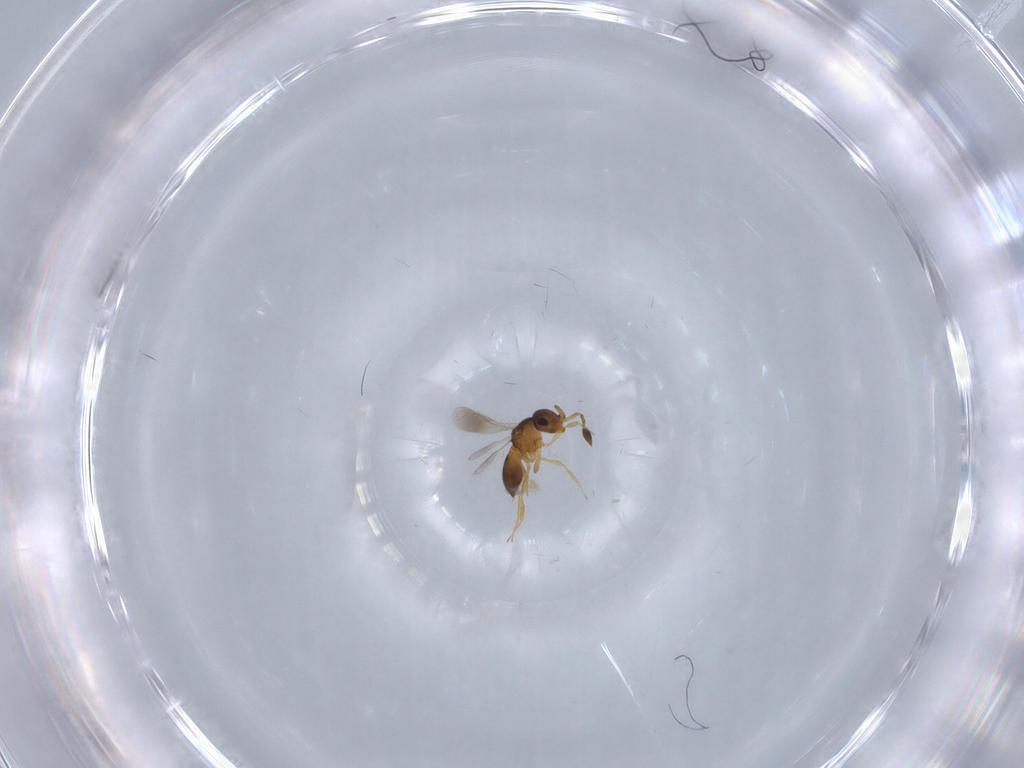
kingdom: Animalia
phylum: Arthropoda
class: Insecta
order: Hymenoptera
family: Scelionidae
